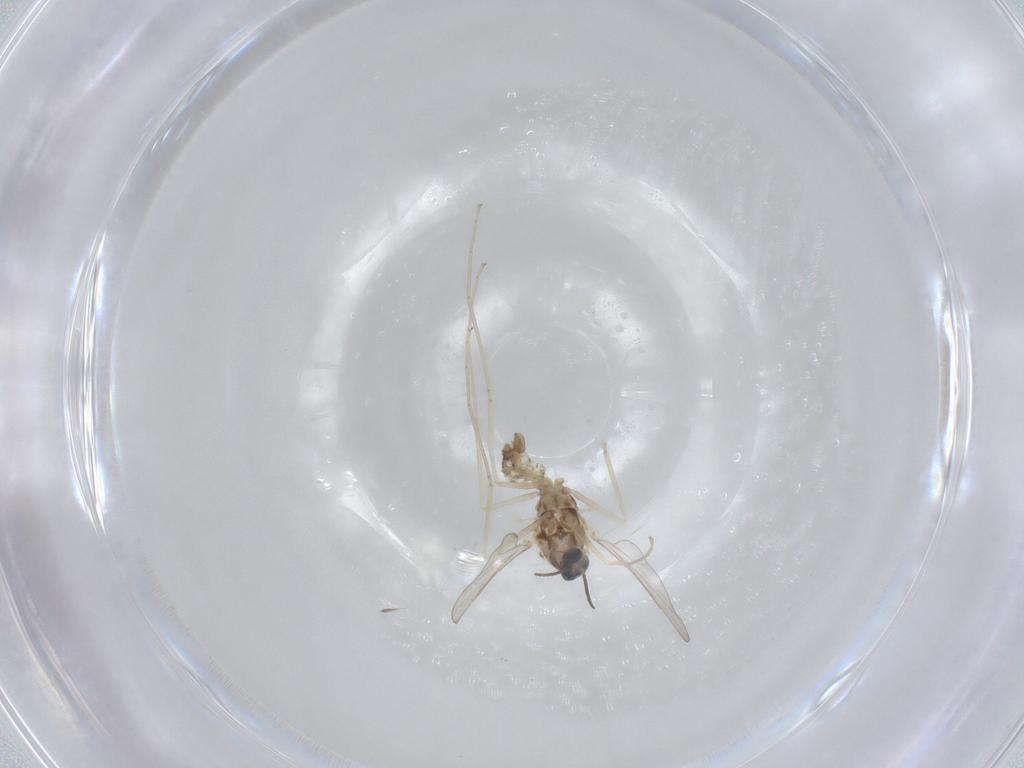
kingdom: Animalia
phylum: Arthropoda
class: Insecta
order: Diptera
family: Cecidomyiidae
